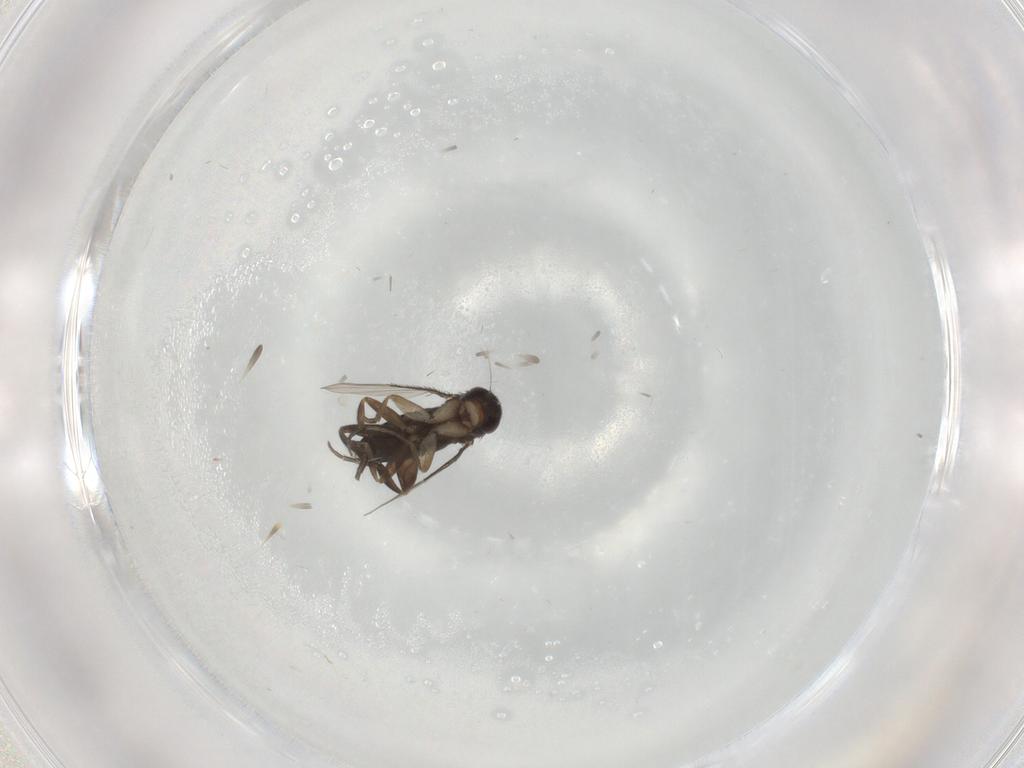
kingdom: Animalia
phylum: Arthropoda
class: Insecta
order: Diptera
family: Phoridae
